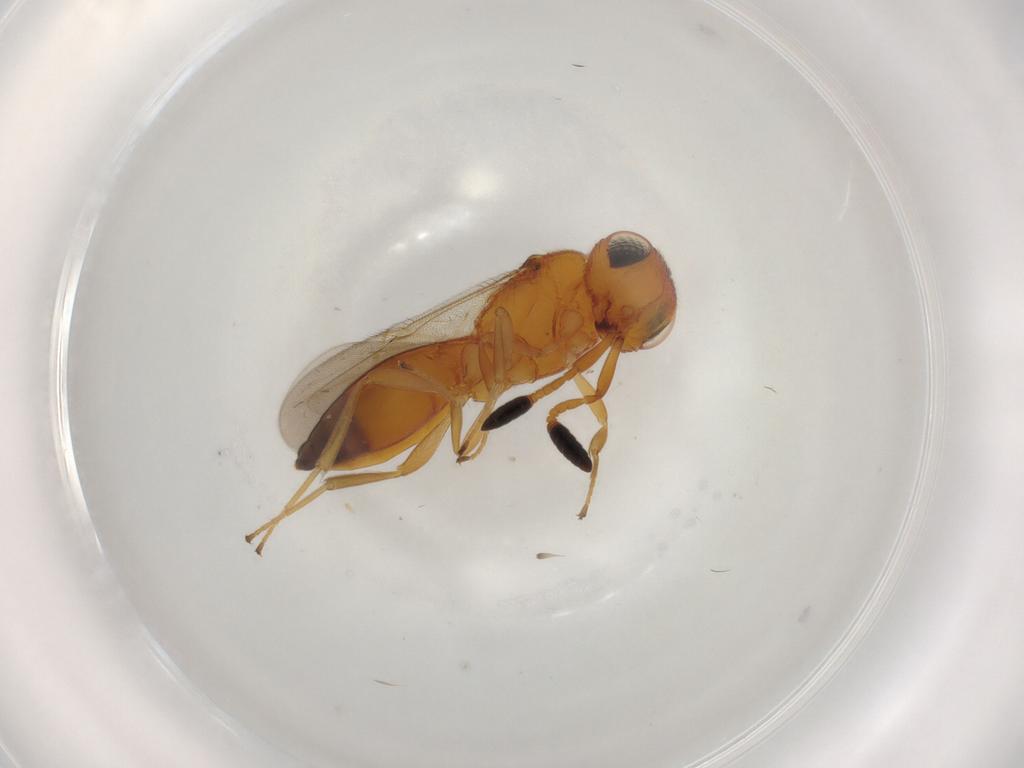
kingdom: Animalia
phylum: Arthropoda
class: Insecta
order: Hymenoptera
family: Scelionidae
